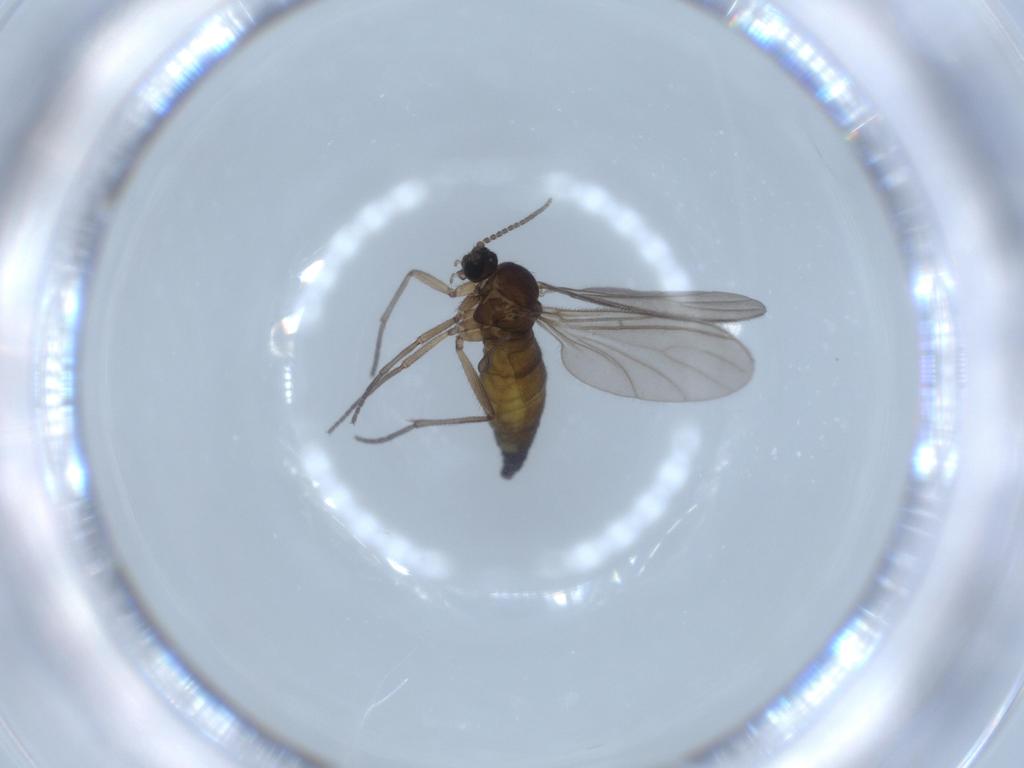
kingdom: Animalia
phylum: Arthropoda
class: Insecta
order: Diptera
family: Sciaridae
